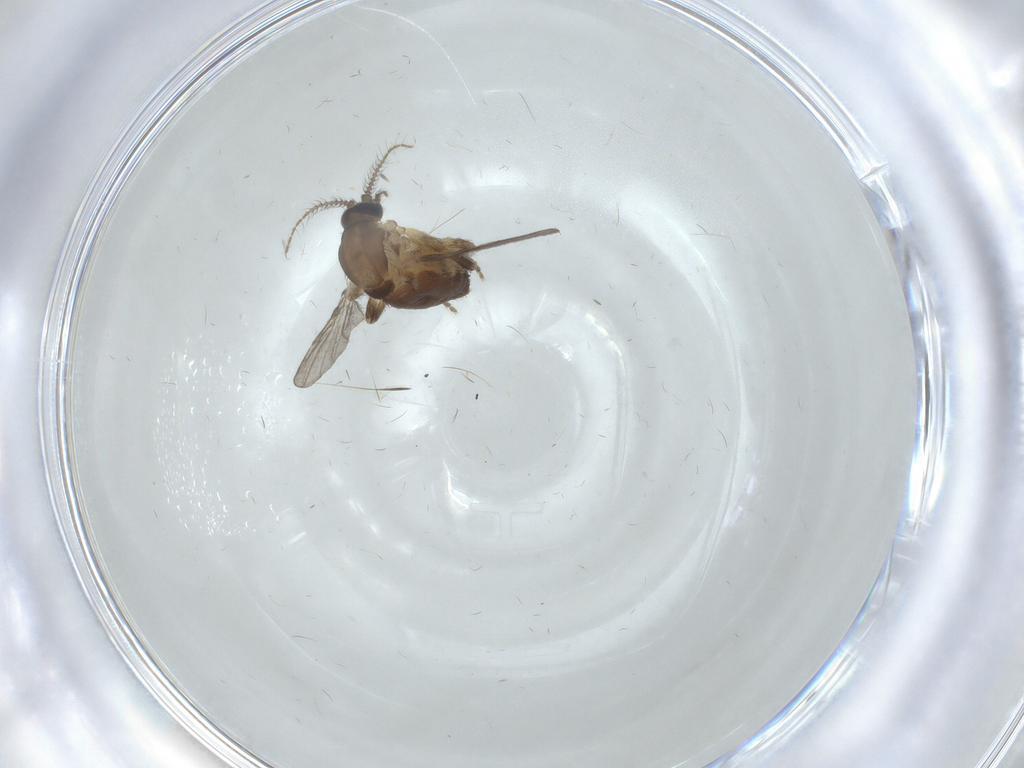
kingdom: Animalia
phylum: Arthropoda
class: Insecta
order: Diptera
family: Ceratopogonidae
